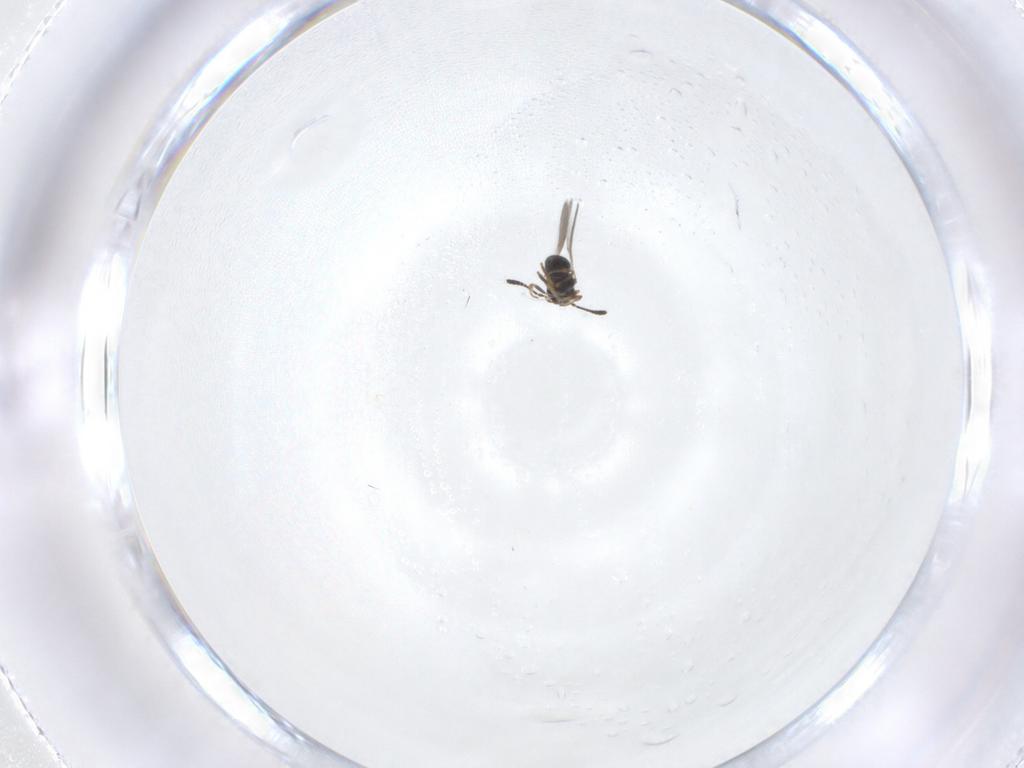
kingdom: Animalia
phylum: Arthropoda
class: Insecta
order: Hymenoptera
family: Scelionidae
